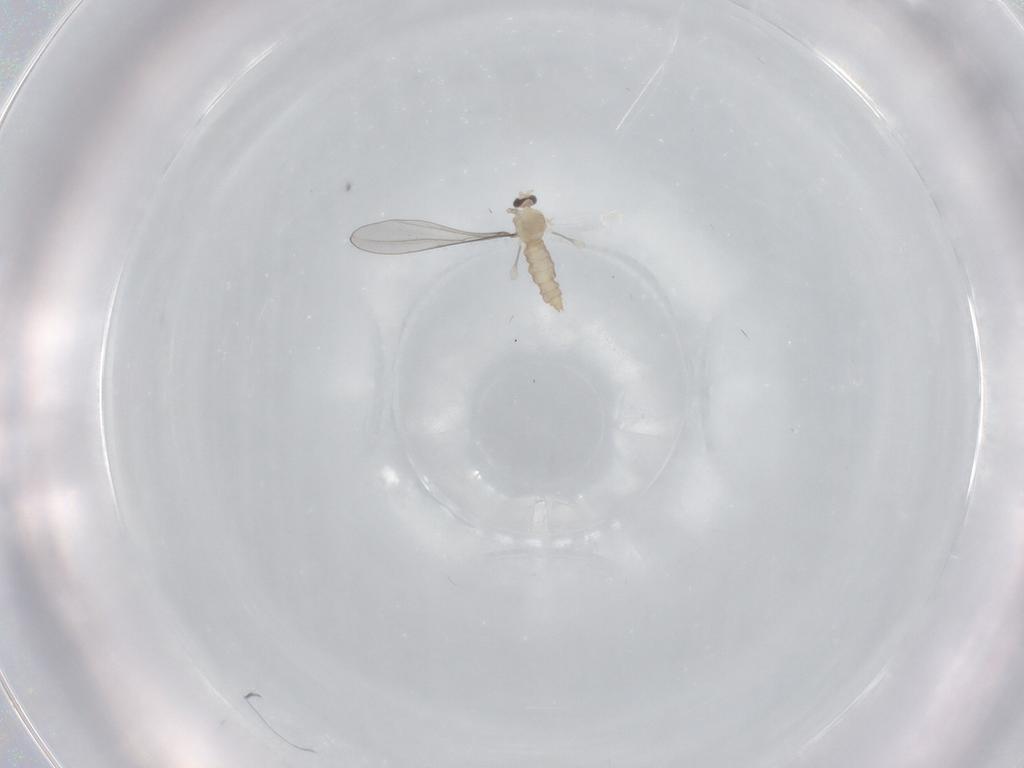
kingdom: Animalia
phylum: Arthropoda
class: Insecta
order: Diptera
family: Cecidomyiidae
